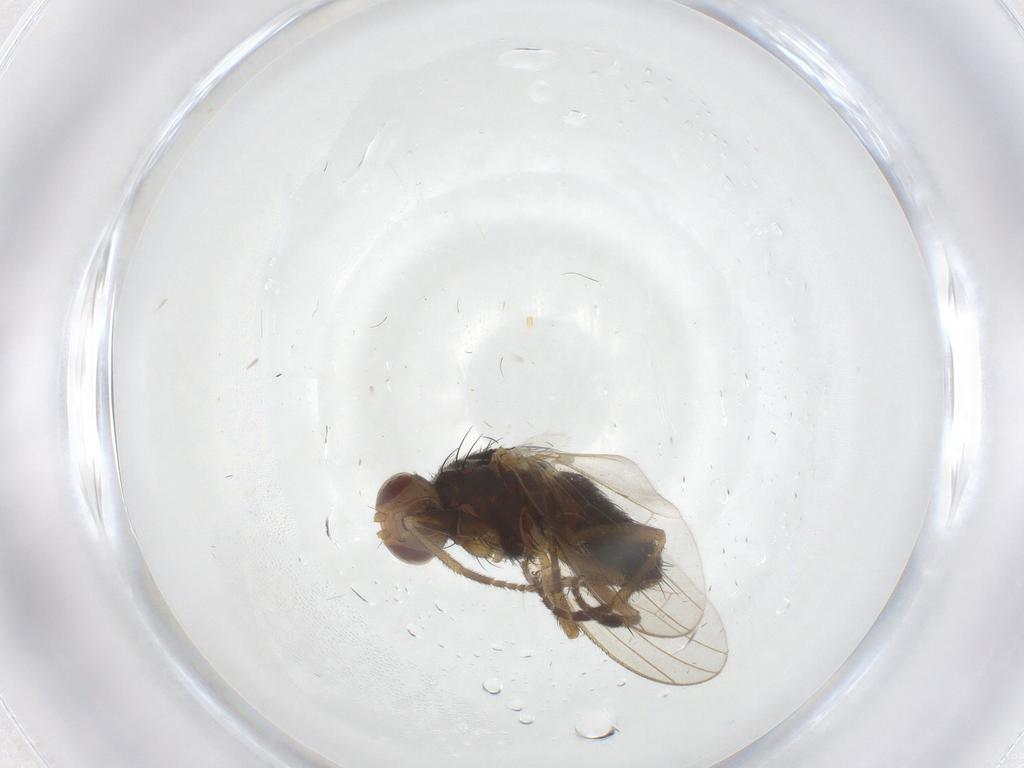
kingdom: Animalia
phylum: Arthropoda
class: Insecta
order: Diptera
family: Heleomyzidae
